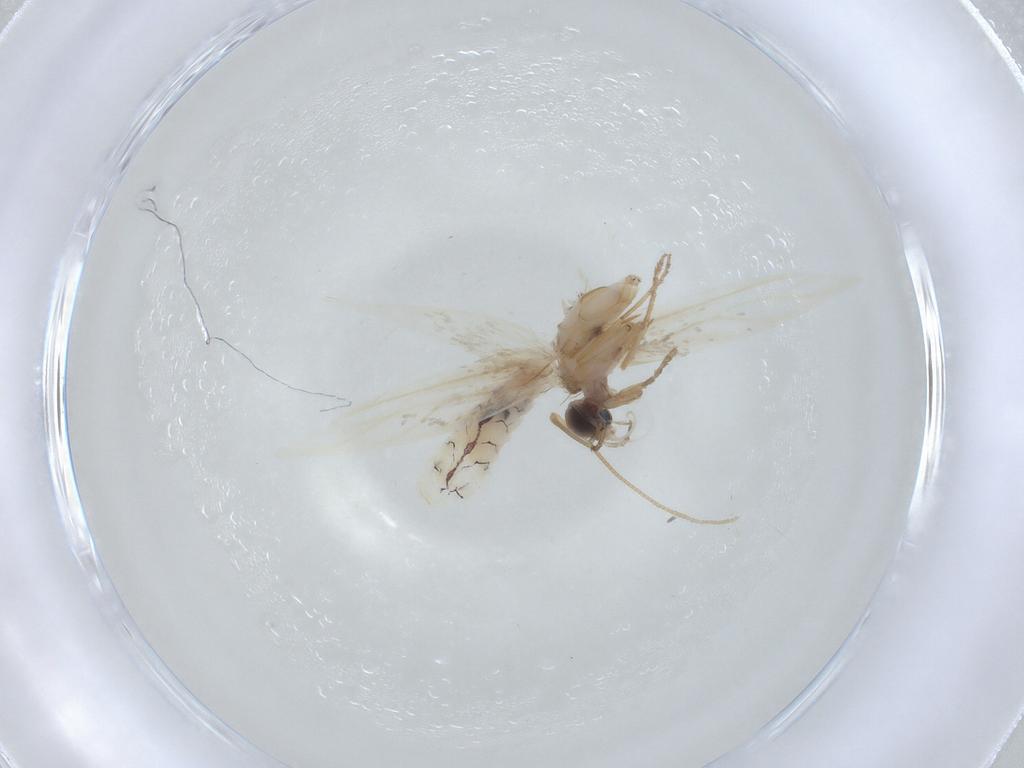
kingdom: Animalia
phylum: Arthropoda
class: Insecta
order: Lepidoptera
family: Nepticulidae
